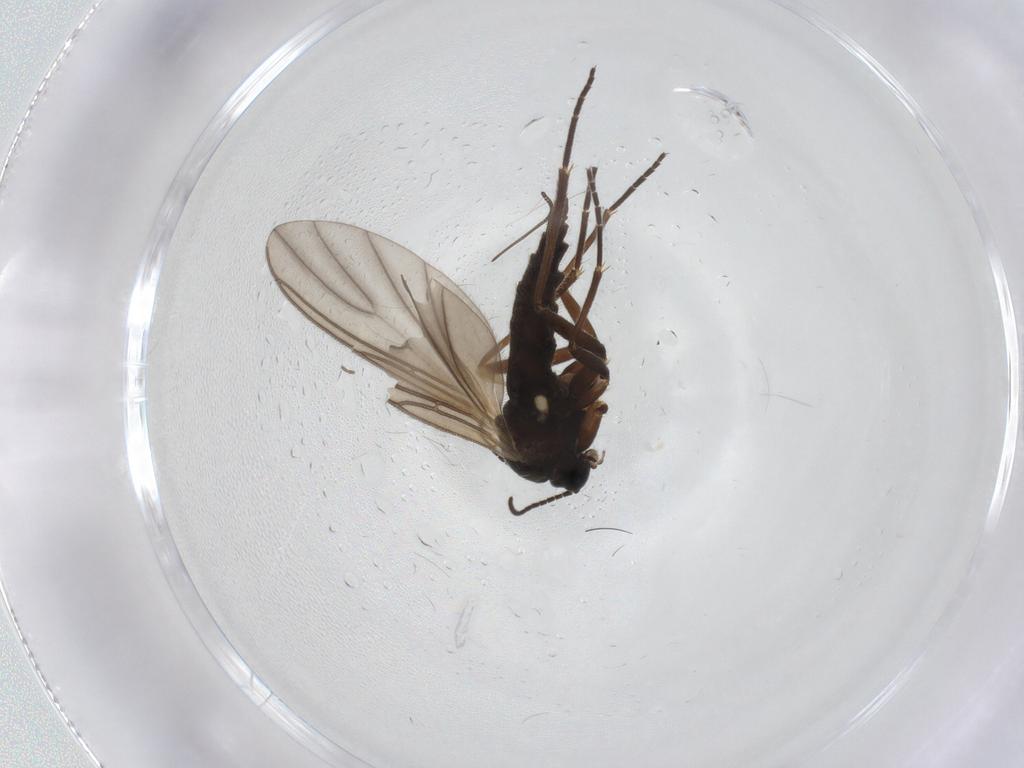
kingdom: Animalia
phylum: Arthropoda
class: Insecta
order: Diptera
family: Sciaridae
